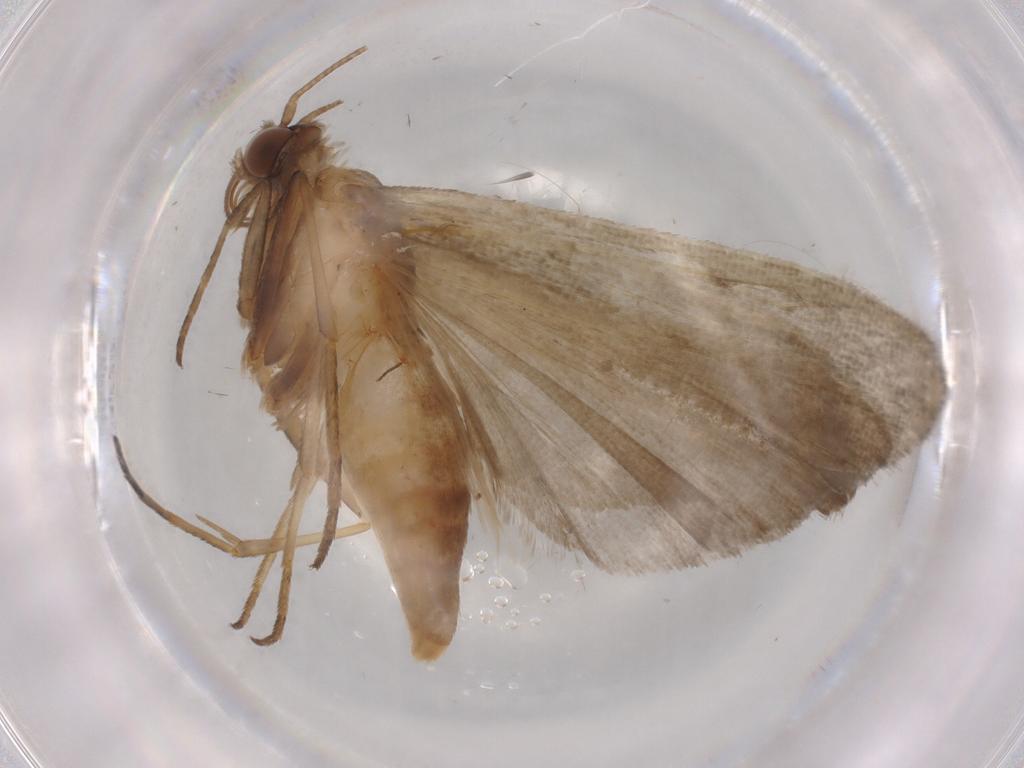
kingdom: Animalia
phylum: Arthropoda
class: Insecta
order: Lepidoptera
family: Noctuidae
